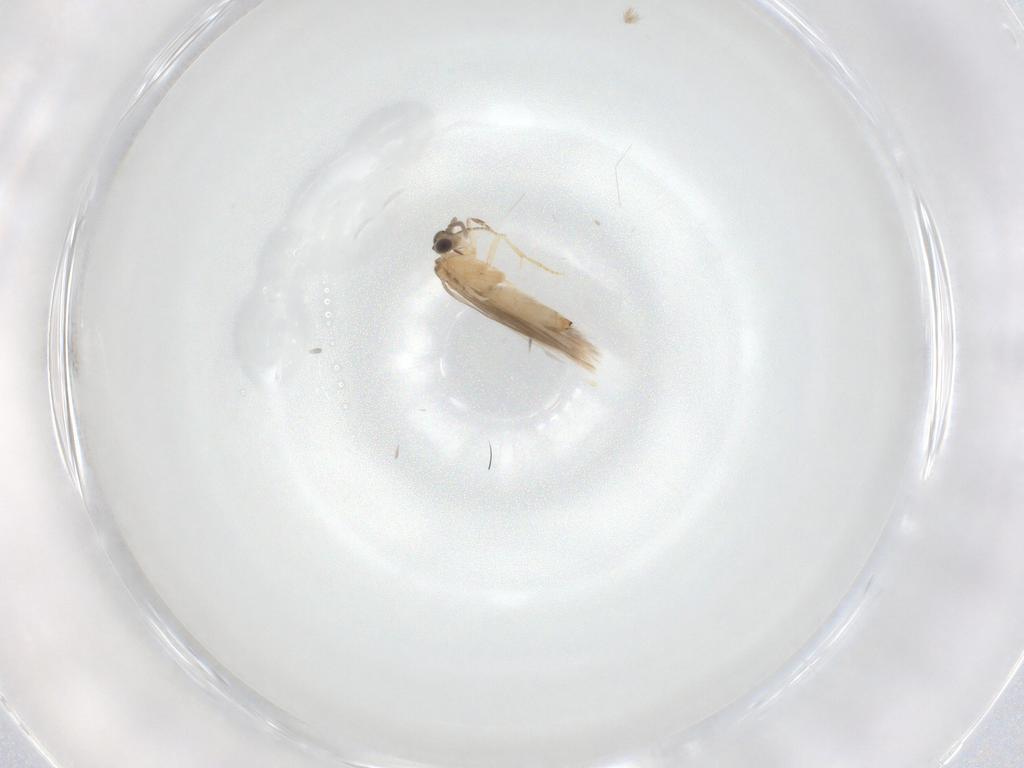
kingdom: Animalia
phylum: Arthropoda
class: Insecta
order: Trichoptera
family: Hydroptilidae
